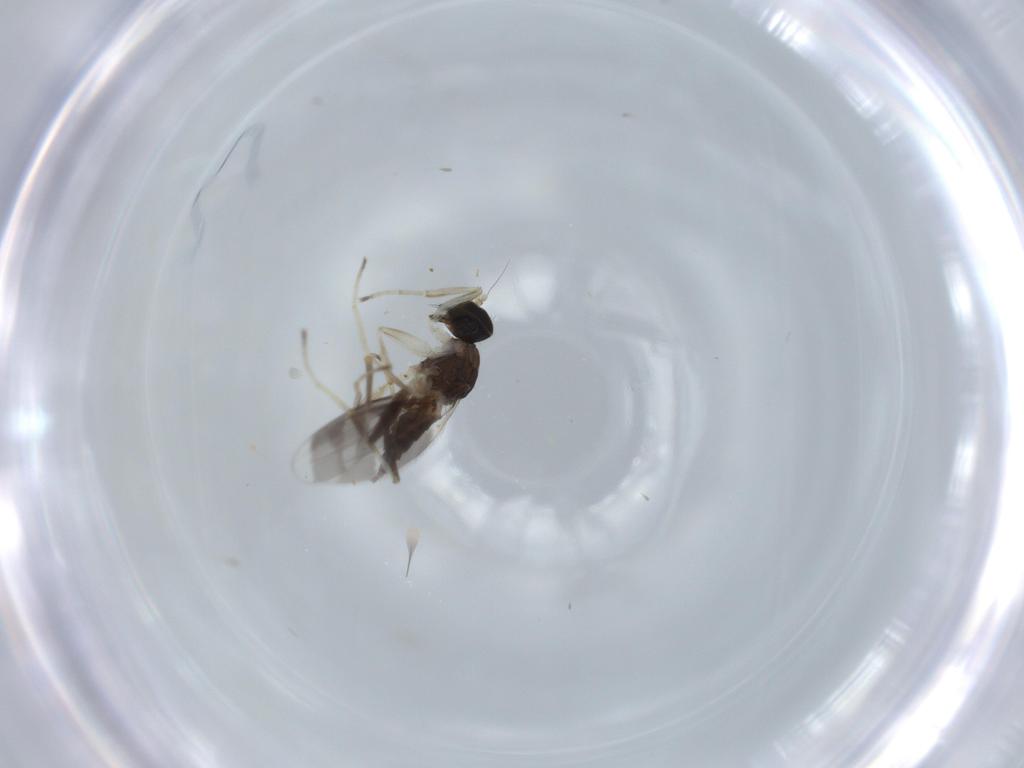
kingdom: Animalia
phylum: Arthropoda
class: Insecta
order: Diptera
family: Hybotidae
